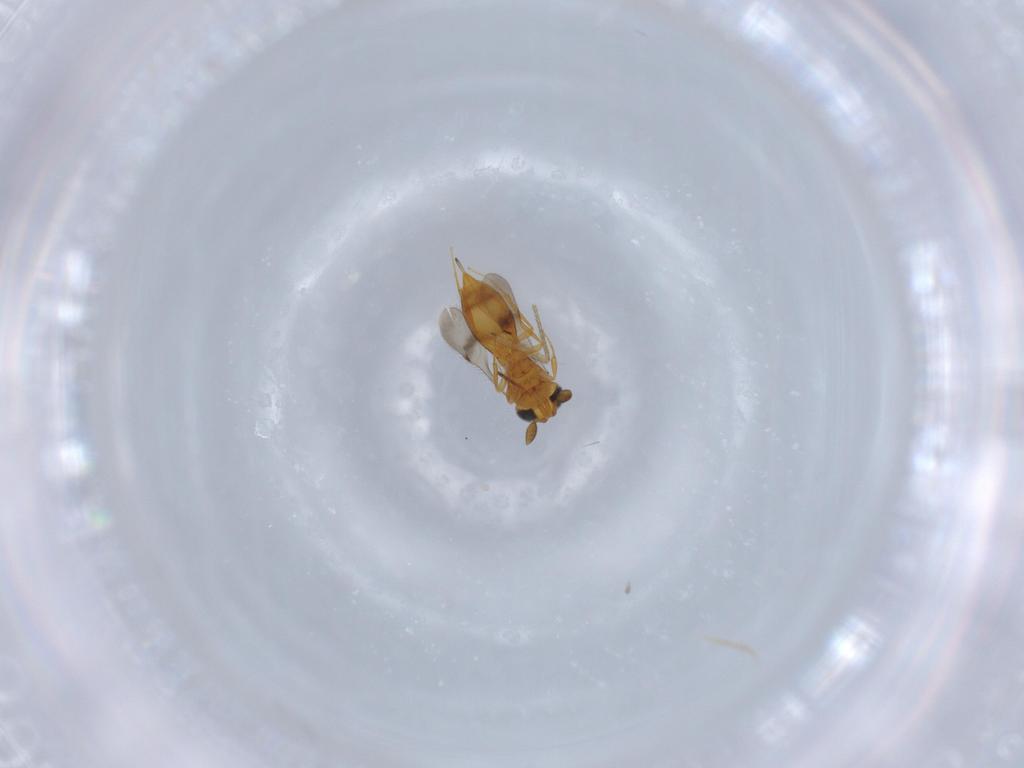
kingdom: Animalia
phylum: Arthropoda
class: Insecta
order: Hymenoptera
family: Scelionidae
